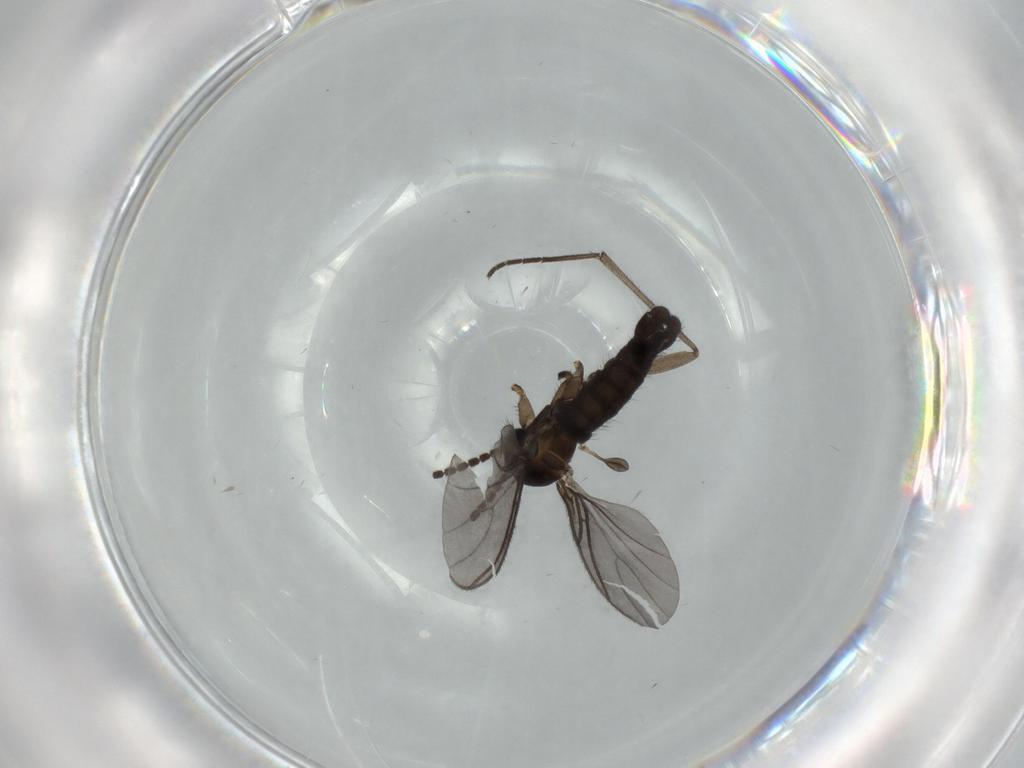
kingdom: Animalia
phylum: Arthropoda
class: Insecta
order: Diptera
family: Sciaridae
